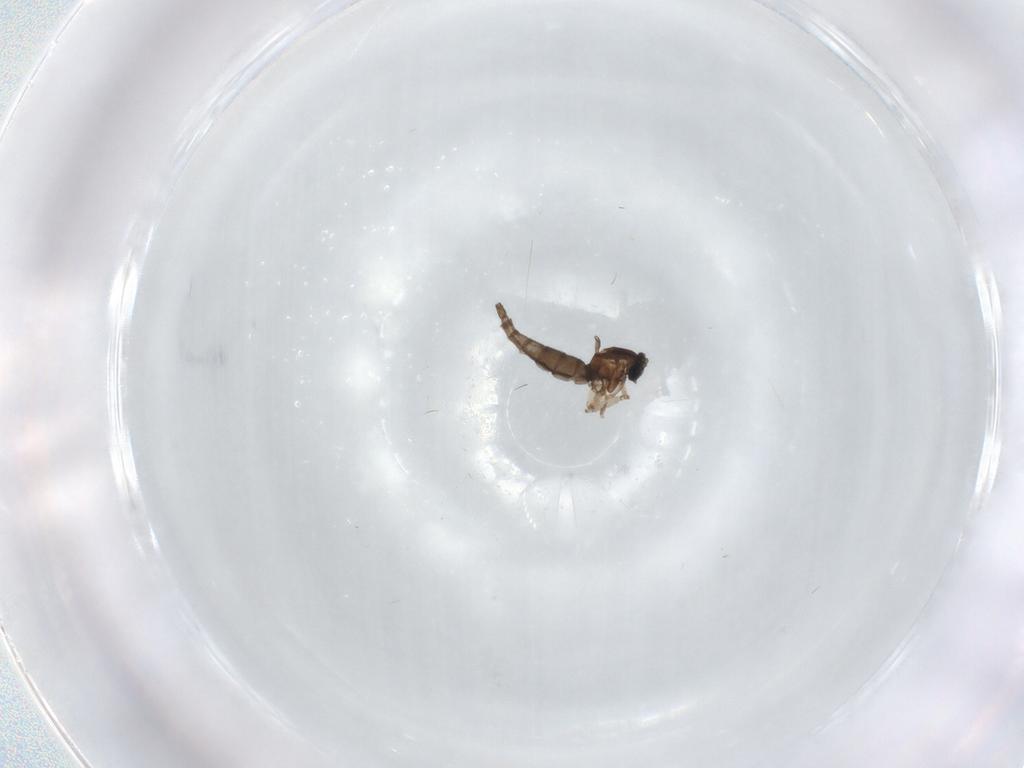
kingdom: Animalia
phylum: Arthropoda
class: Insecta
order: Diptera
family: Sciaridae
